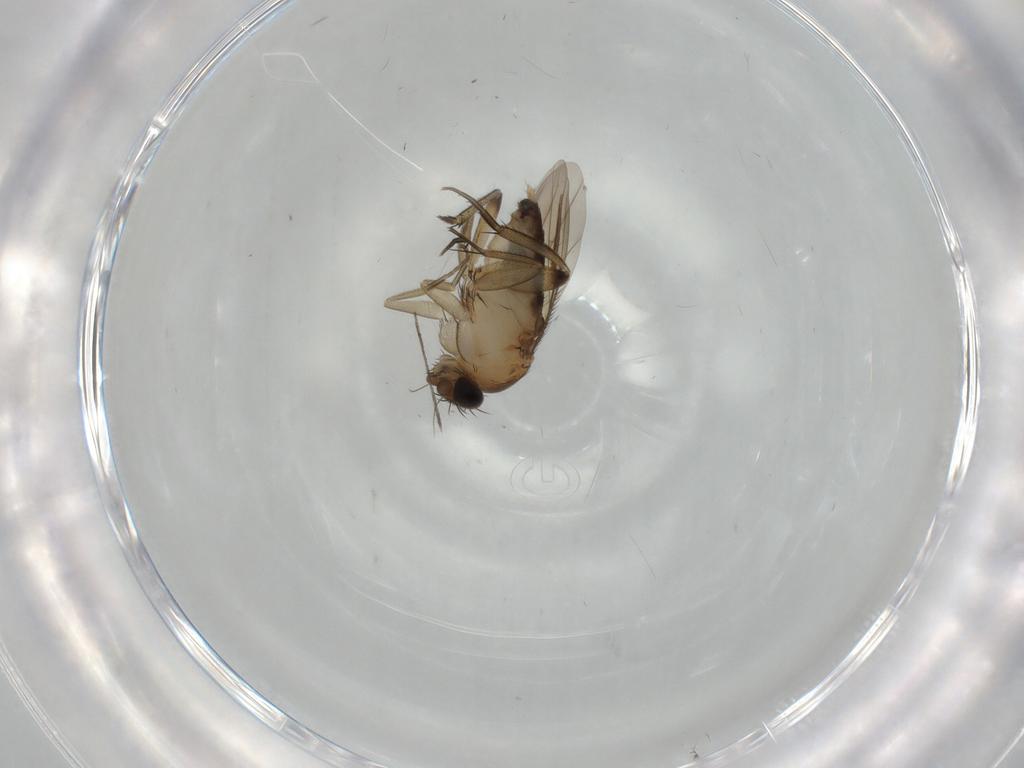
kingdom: Animalia
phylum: Arthropoda
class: Insecta
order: Diptera
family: Phoridae
